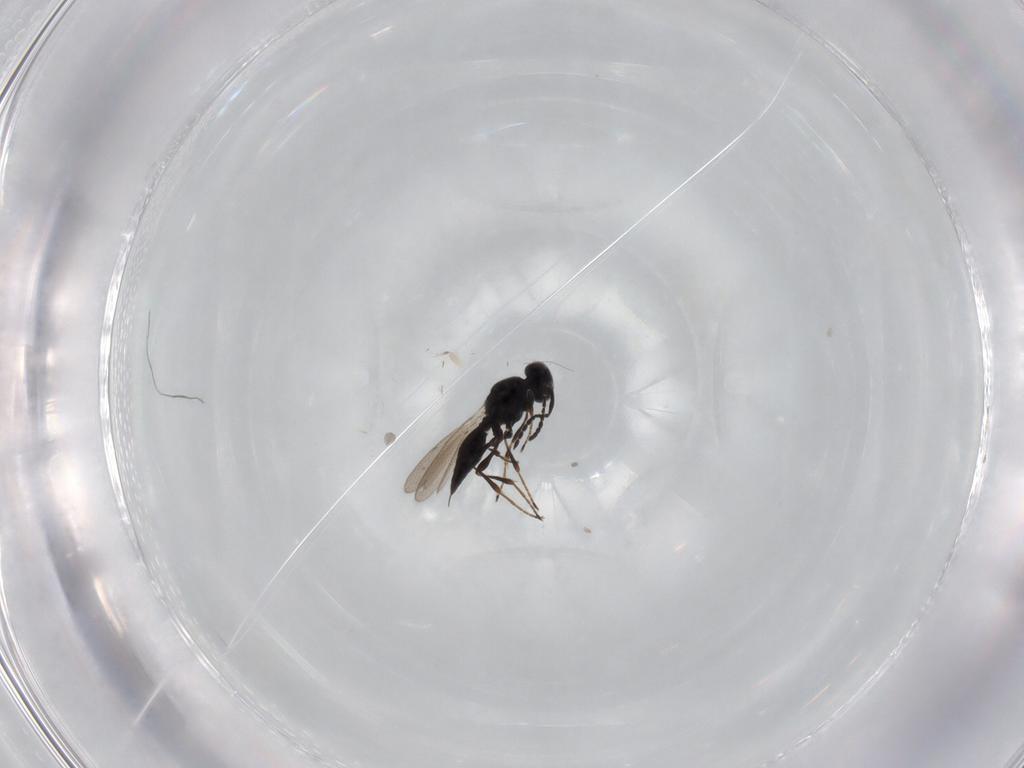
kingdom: Animalia
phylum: Arthropoda
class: Insecta
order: Hymenoptera
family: Platygastridae
